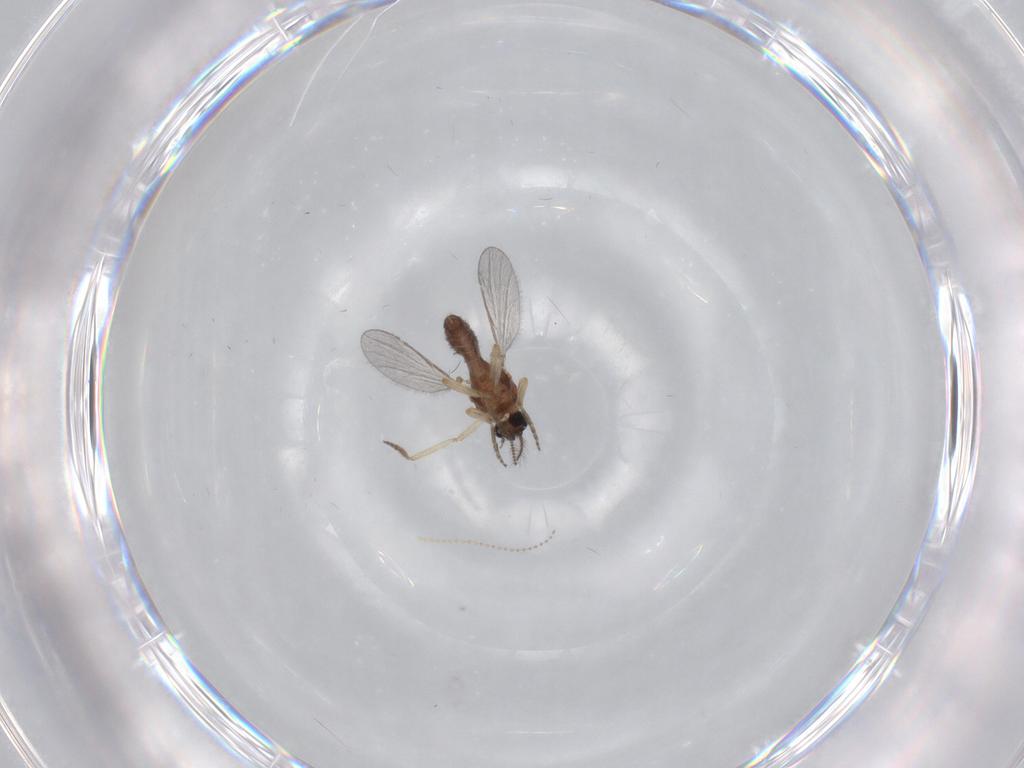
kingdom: Animalia
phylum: Arthropoda
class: Insecta
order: Diptera
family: Ceratopogonidae
